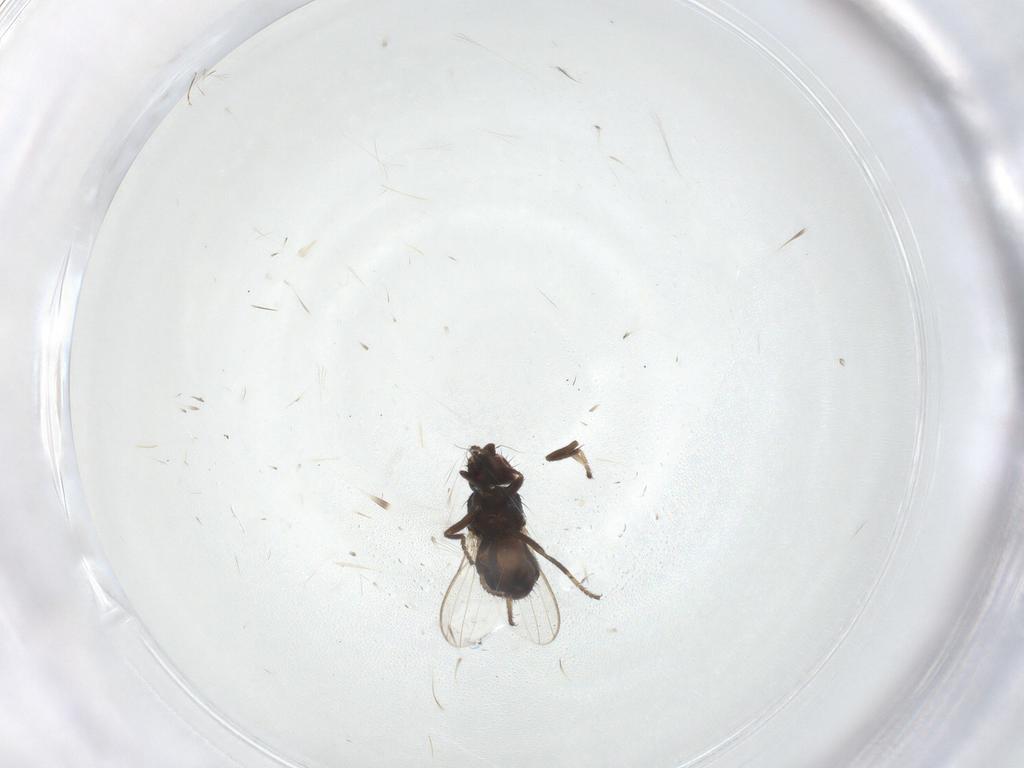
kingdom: Animalia
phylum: Arthropoda
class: Insecta
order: Diptera
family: Milichiidae
